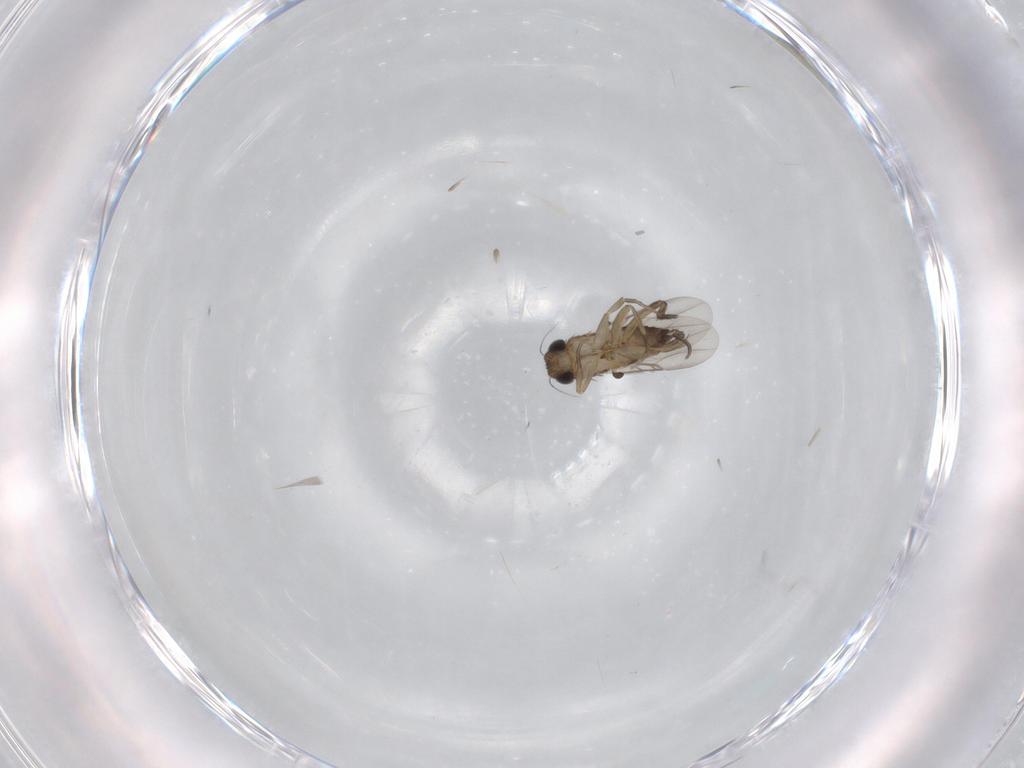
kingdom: Animalia
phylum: Arthropoda
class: Insecta
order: Diptera
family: Phoridae
